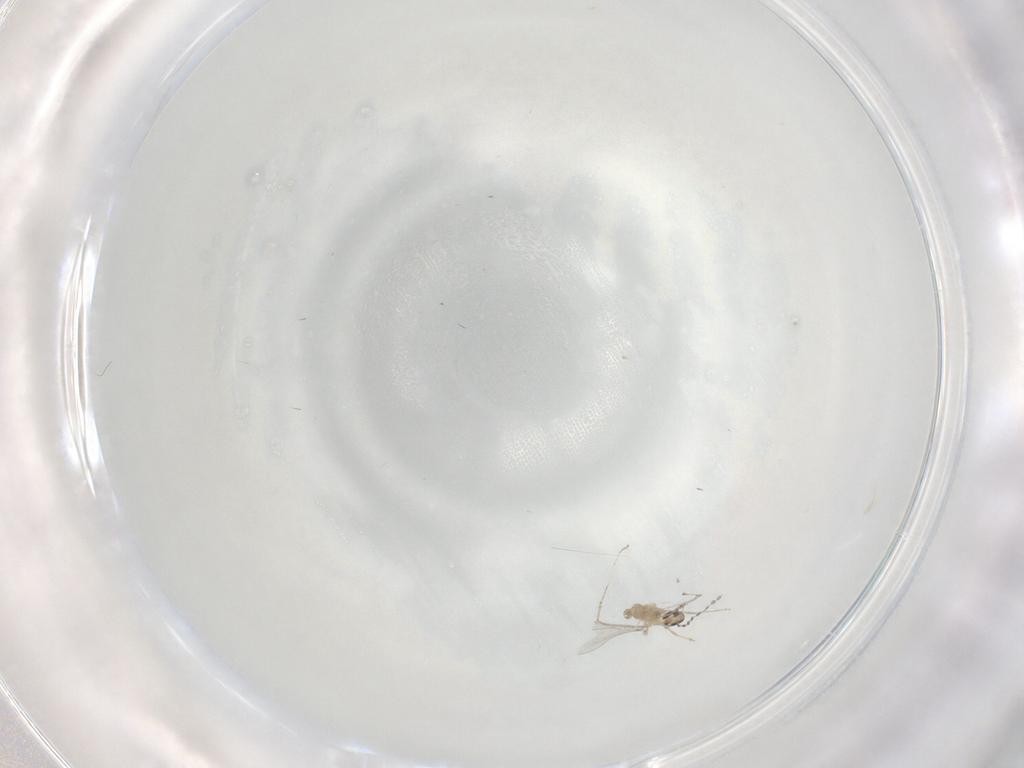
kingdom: Animalia
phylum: Arthropoda
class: Insecta
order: Diptera
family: Cecidomyiidae
